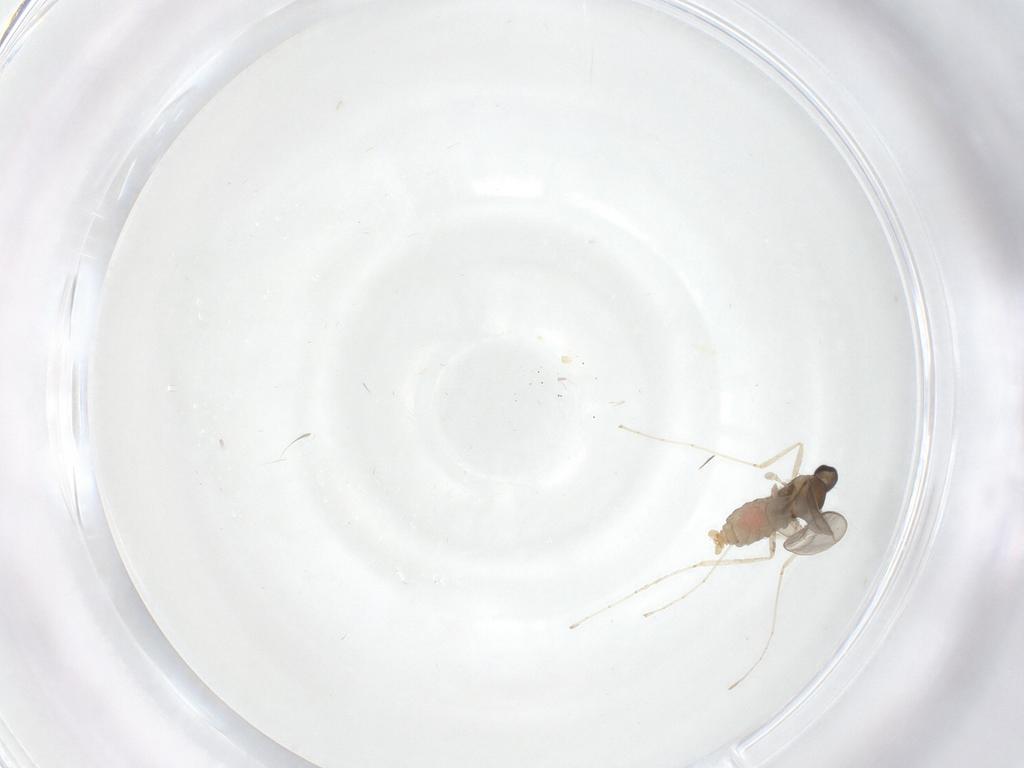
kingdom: Animalia
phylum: Arthropoda
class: Insecta
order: Diptera
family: Cecidomyiidae
